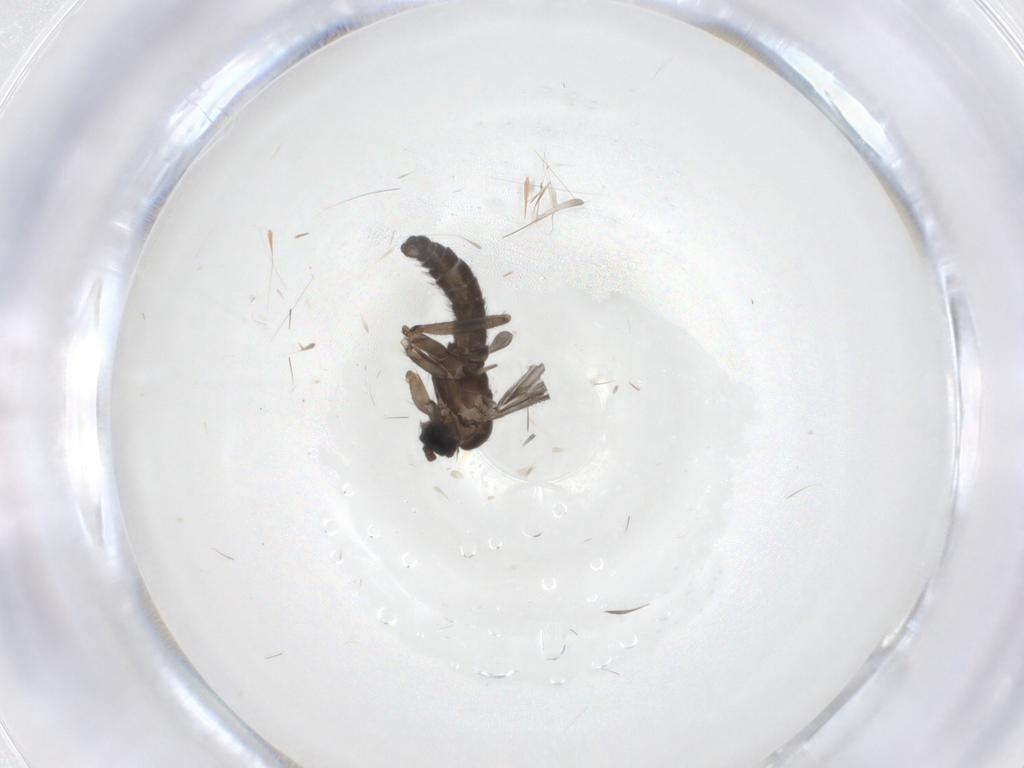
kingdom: Animalia
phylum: Arthropoda
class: Insecta
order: Diptera
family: Sciaridae
